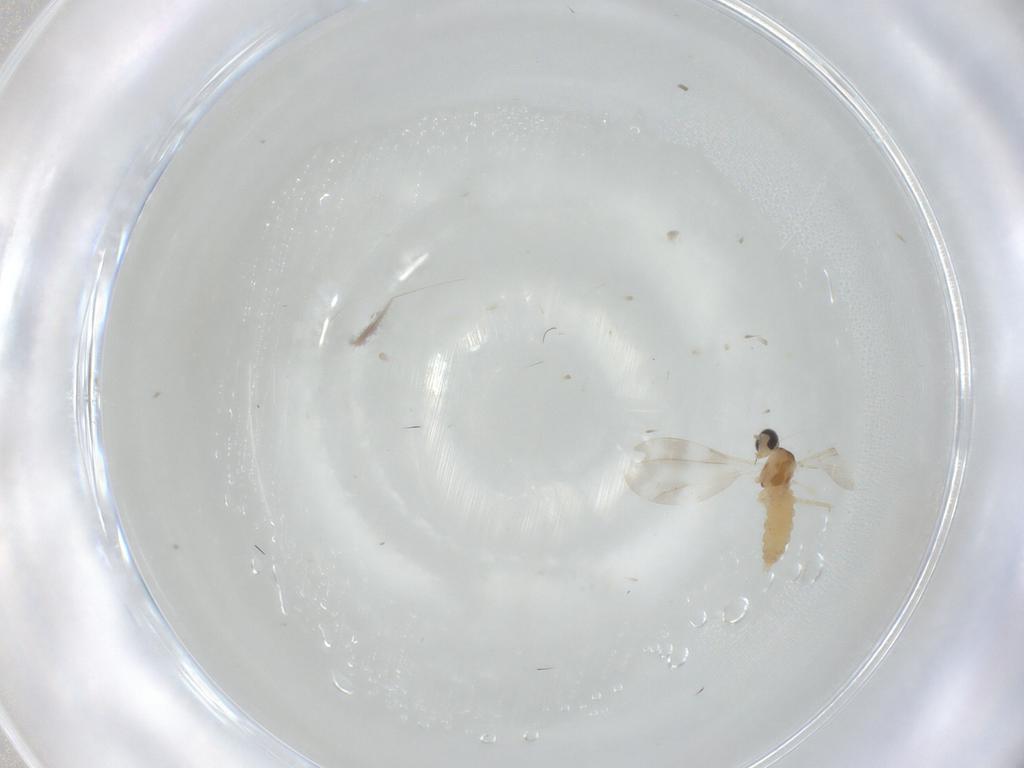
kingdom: Animalia
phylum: Arthropoda
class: Insecta
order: Diptera
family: Cecidomyiidae
